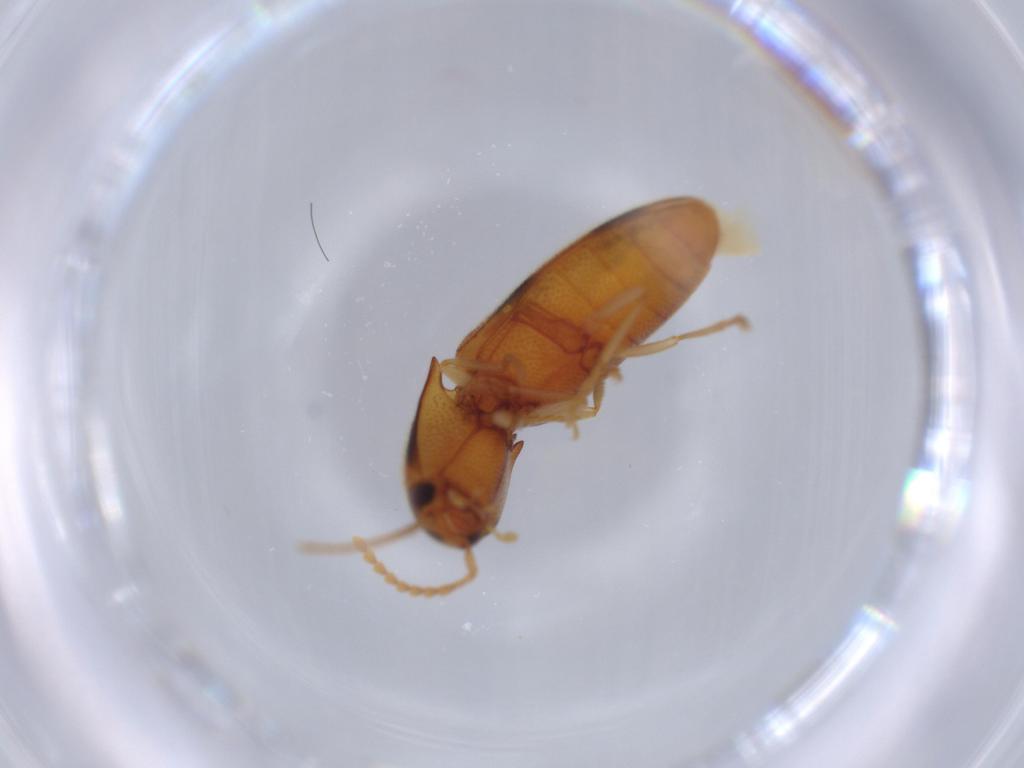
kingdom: Animalia
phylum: Arthropoda
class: Insecta
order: Coleoptera
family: Elateridae
